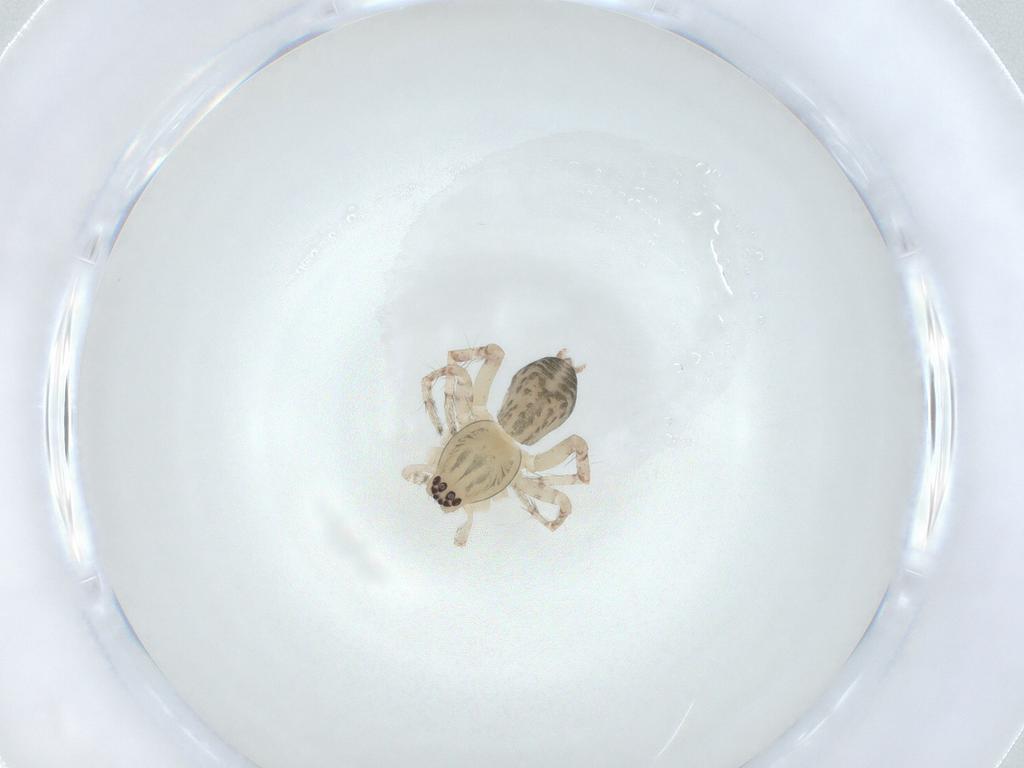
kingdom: Animalia
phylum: Arthropoda
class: Arachnida
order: Araneae
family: Anyphaenidae
